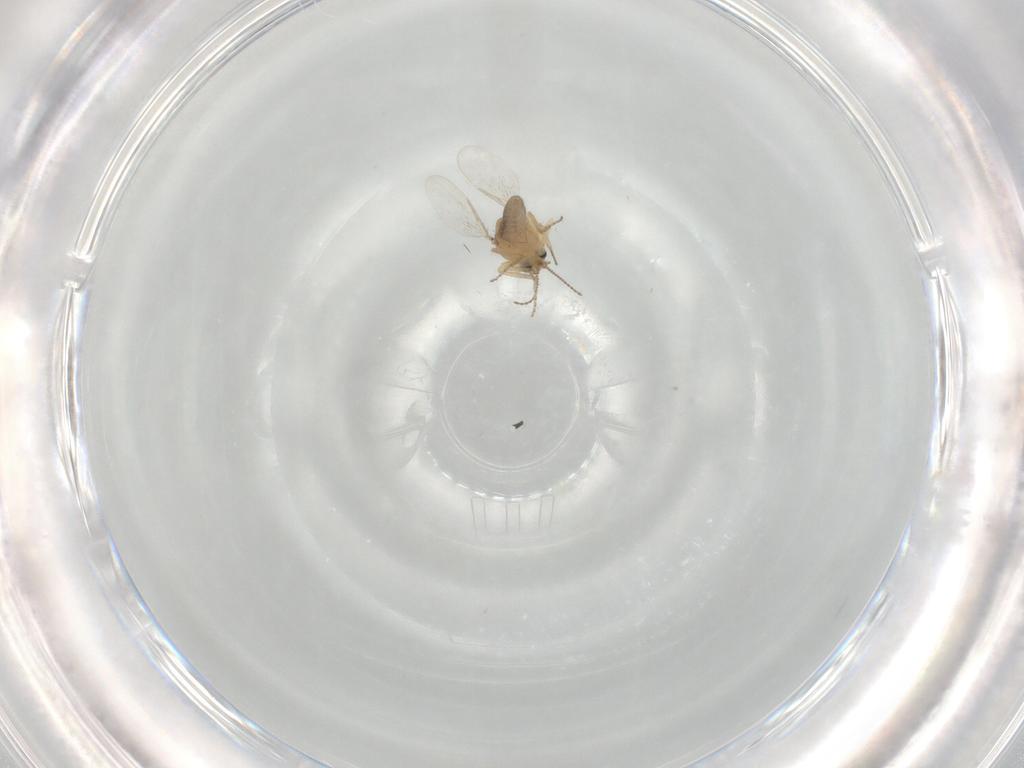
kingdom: Animalia
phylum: Arthropoda
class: Insecta
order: Diptera
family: Ceratopogonidae
